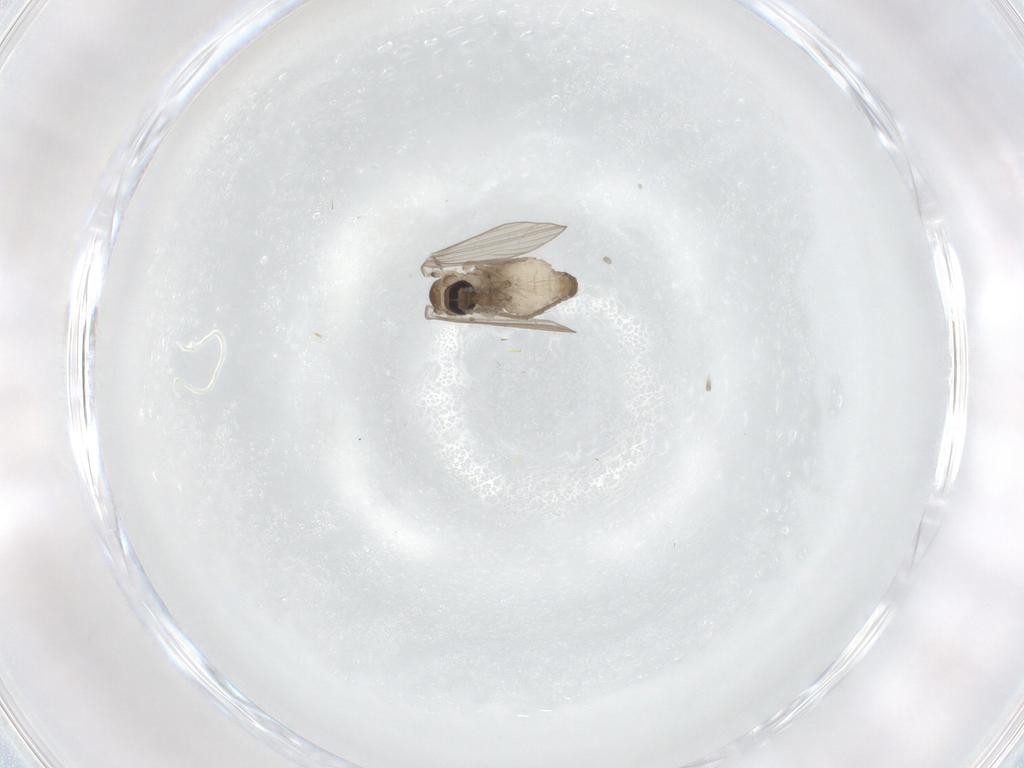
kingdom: Animalia
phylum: Arthropoda
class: Insecta
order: Diptera
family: Psychodidae
